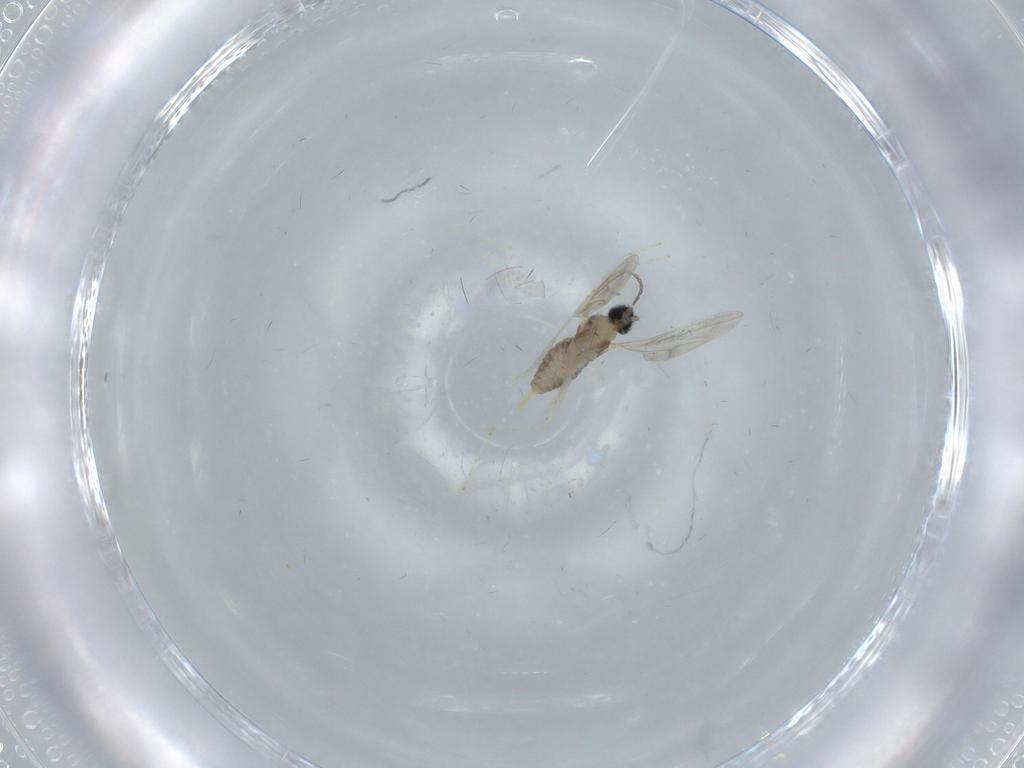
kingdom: Animalia
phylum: Arthropoda
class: Insecta
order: Diptera
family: Cecidomyiidae
